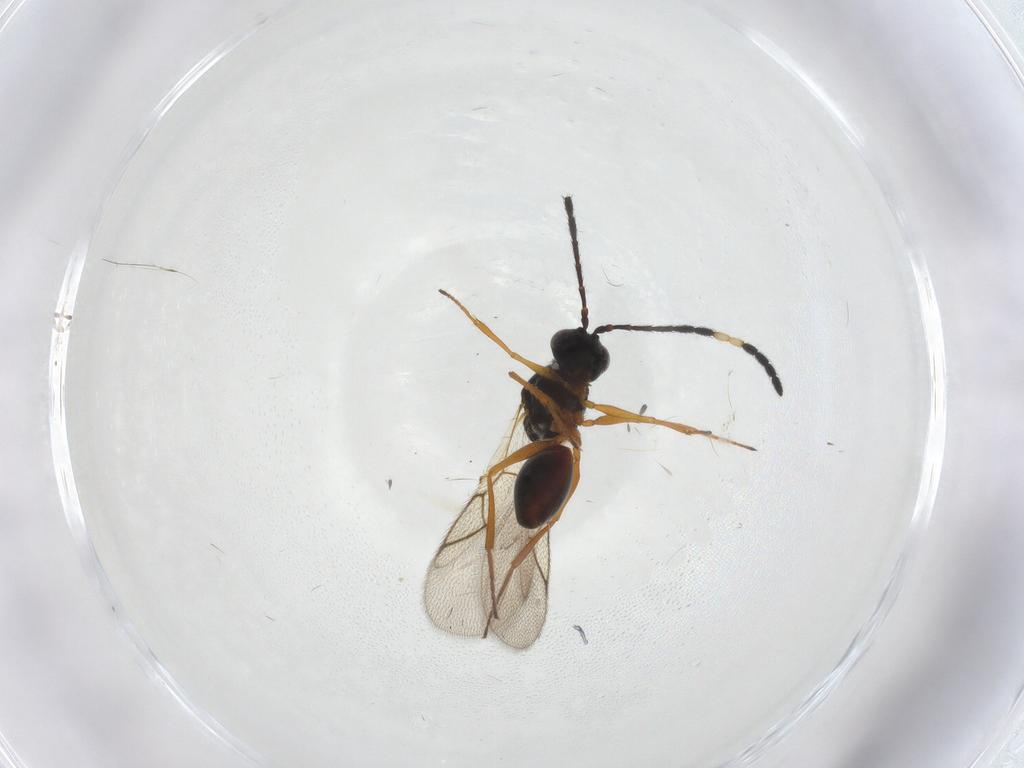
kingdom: Animalia
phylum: Arthropoda
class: Insecta
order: Hymenoptera
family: Figitidae
